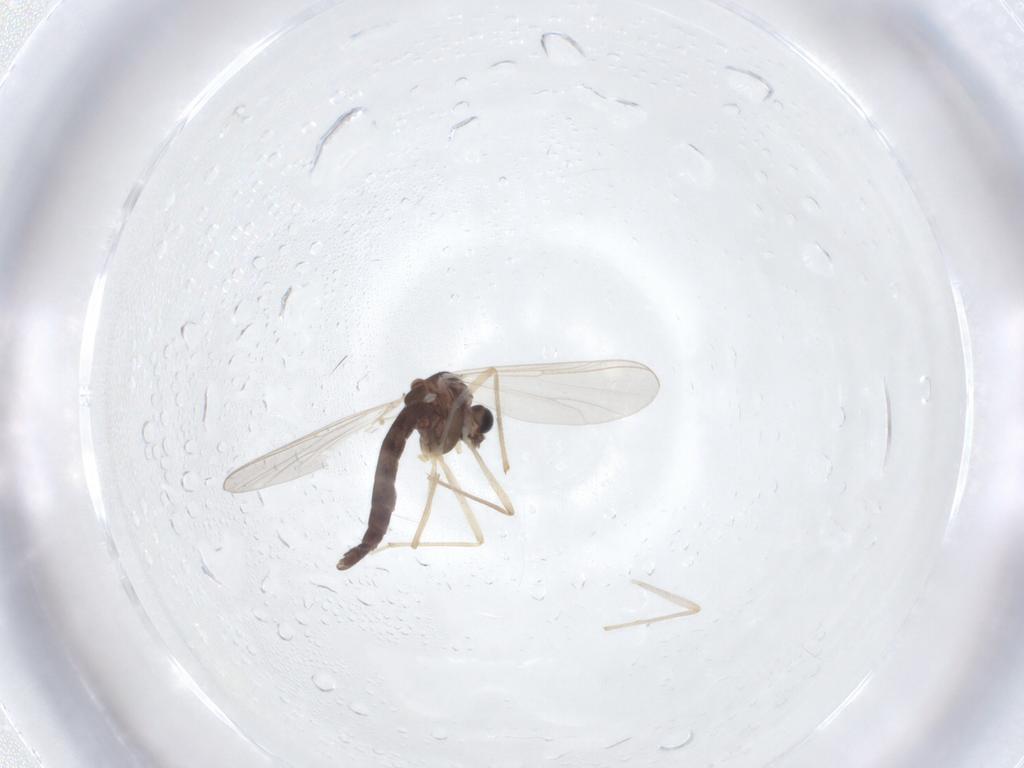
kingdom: Animalia
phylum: Arthropoda
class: Insecta
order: Diptera
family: Chironomidae
